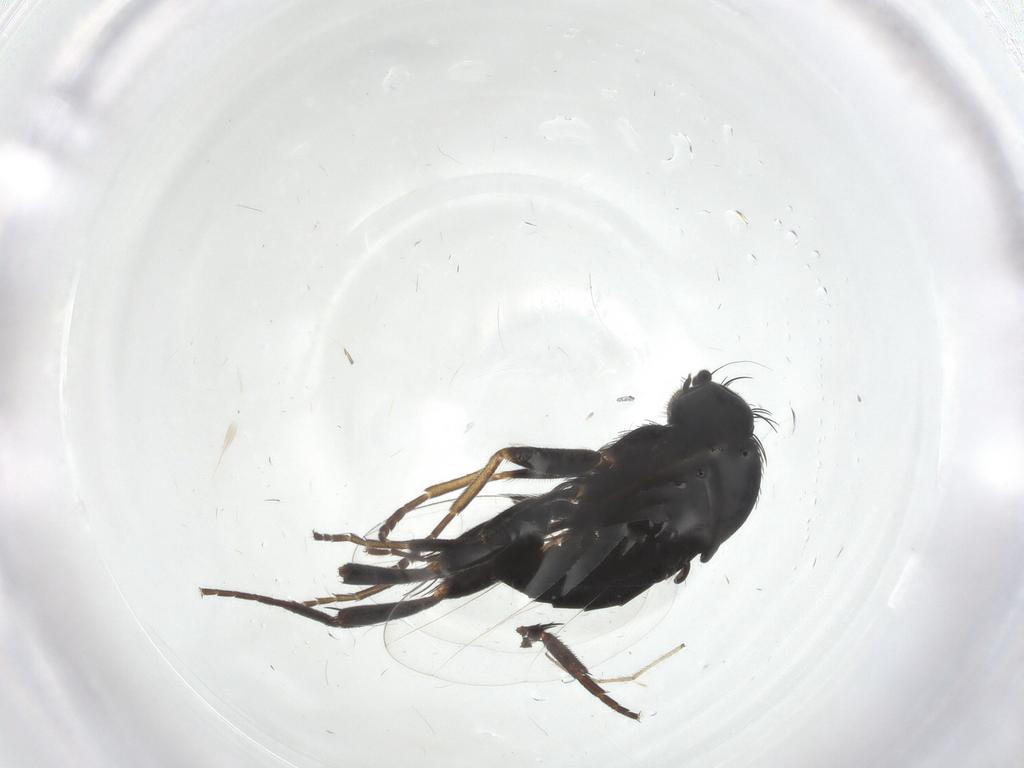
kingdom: Animalia
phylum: Arthropoda
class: Insecta
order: Diptera
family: Phoridae
